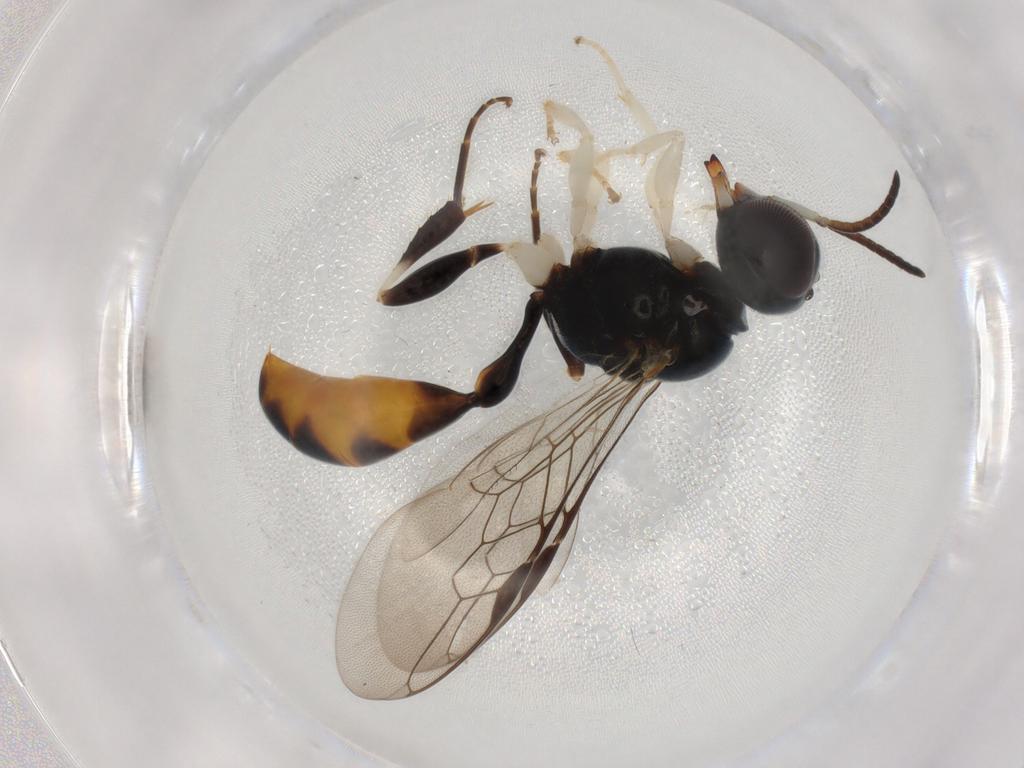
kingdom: Animalia
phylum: Arthropoda
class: Insecta
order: Hymenoptera
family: Crabronidae
